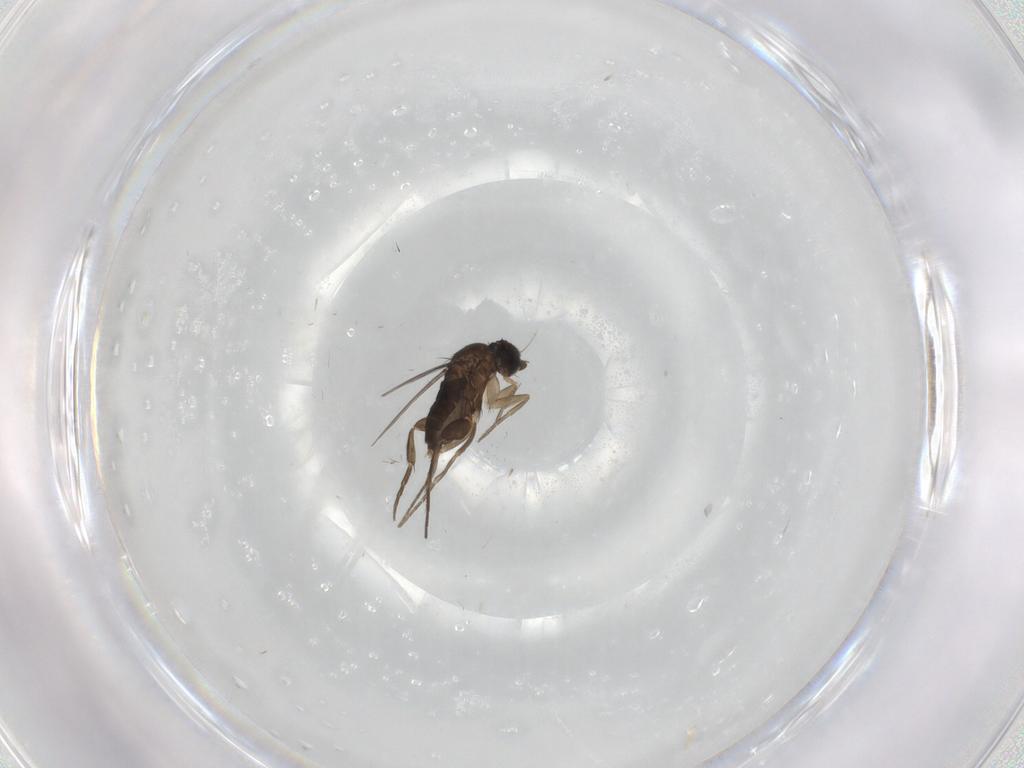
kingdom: Animalia
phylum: Arthropoda
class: Insecta
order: Diptera
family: Phoridae
